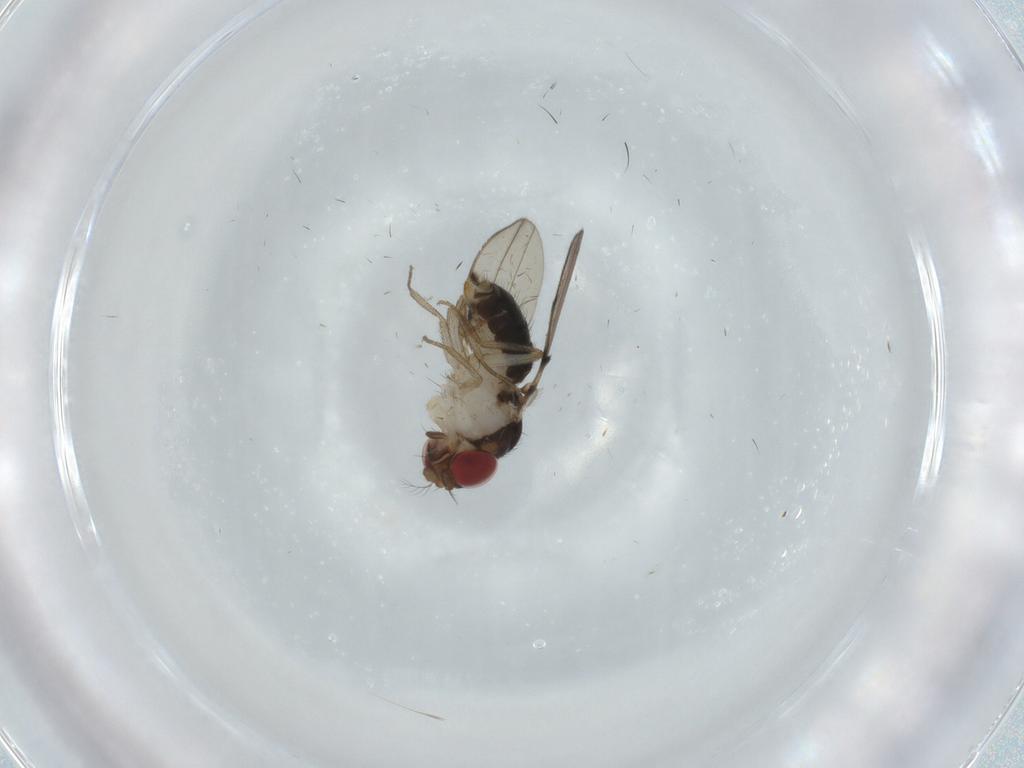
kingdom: Animalia
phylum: Arthropoda
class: Insecta
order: Diptera
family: Drosophilidae
